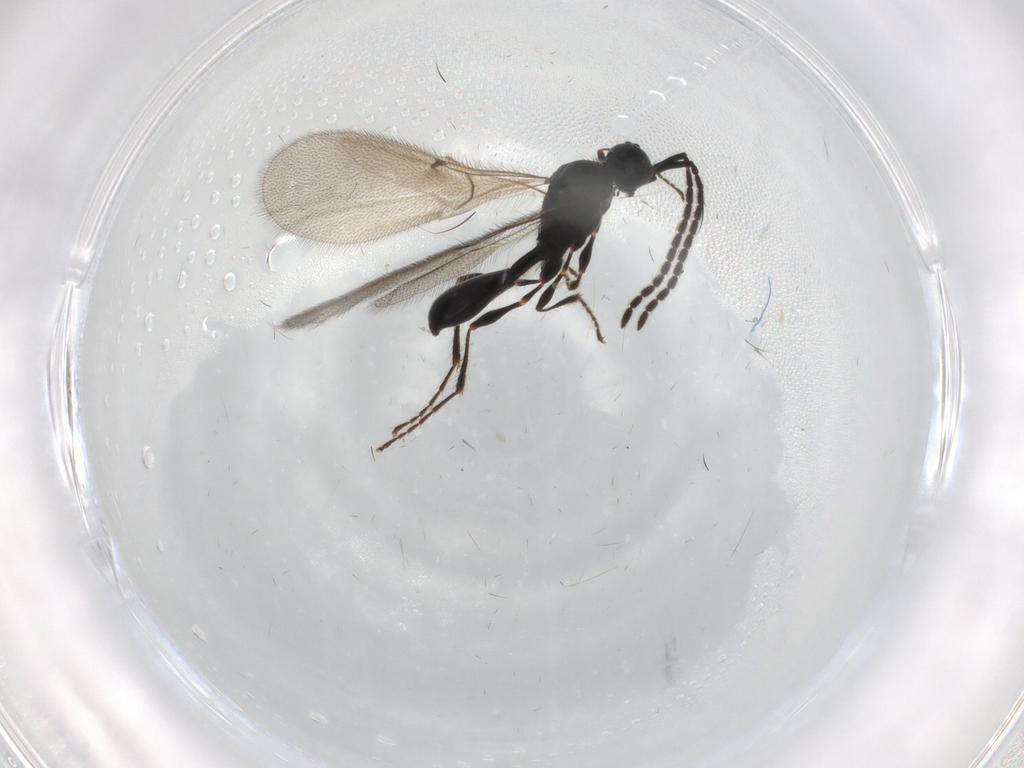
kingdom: Animalia
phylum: Arthropoda
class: Insecta
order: Hymenoptera
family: Diapriidae
